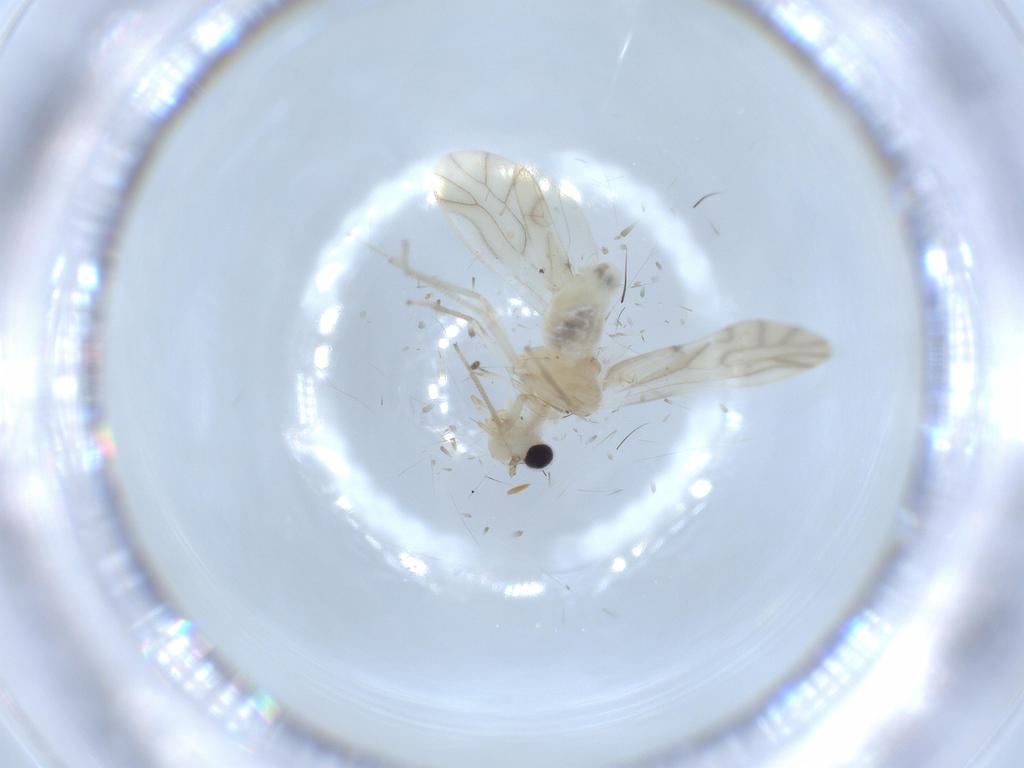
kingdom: Animalia
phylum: Arthropoda
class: Insecta
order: Psocodea
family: Caeciliusidae
